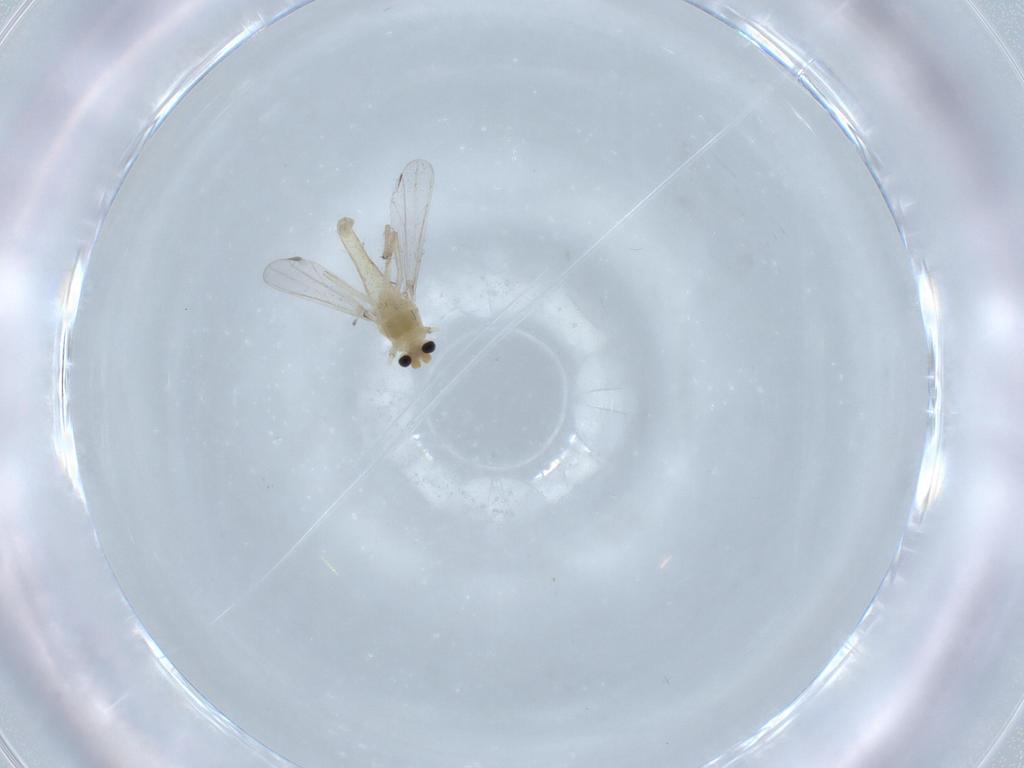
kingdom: Animalia
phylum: Arthropoda
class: Insecta
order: Diptera
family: Chironomidae
